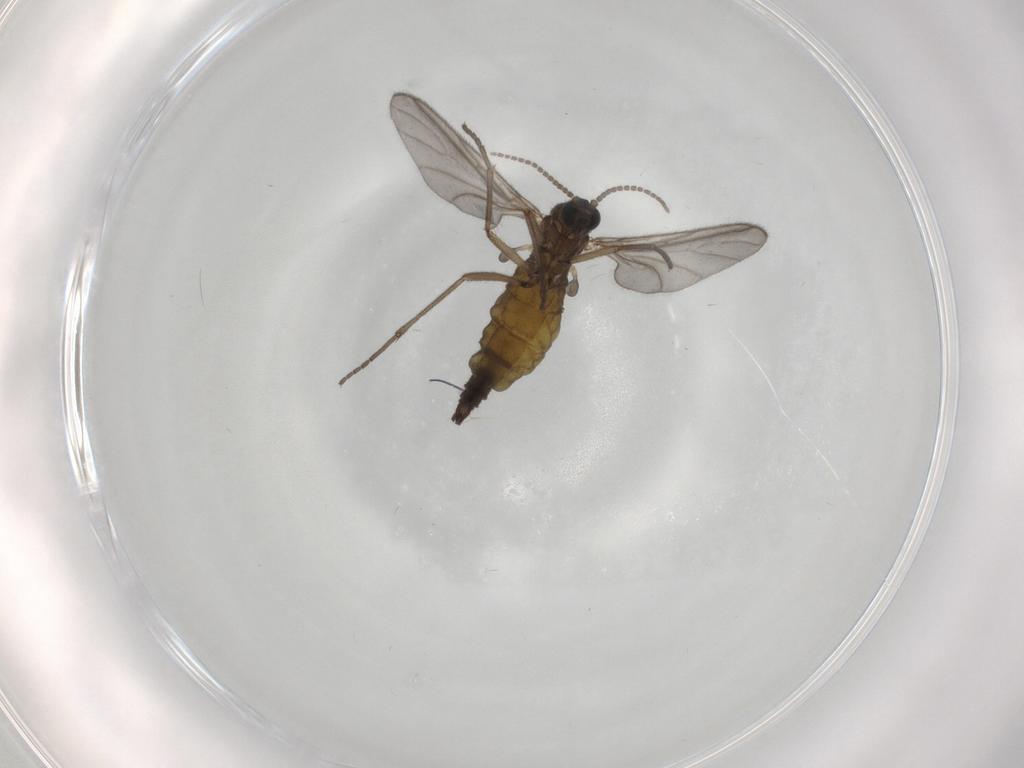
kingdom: Animalia
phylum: Arthropoda
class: Insecta
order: Diptera
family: Sciaridae
